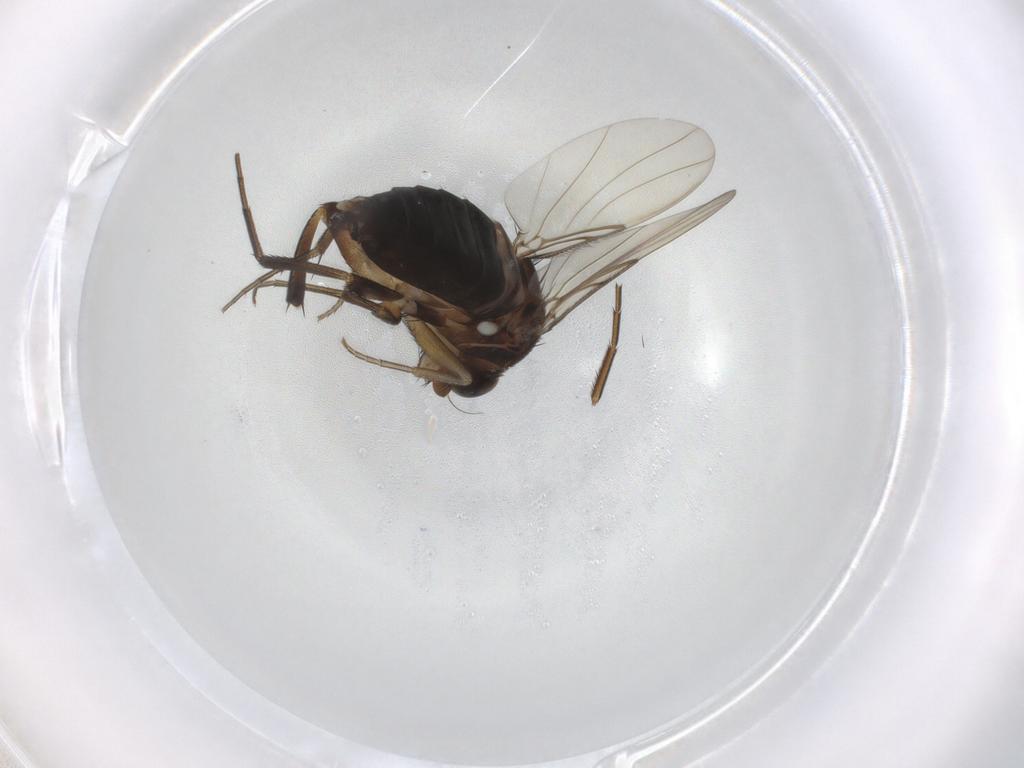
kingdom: Animalia
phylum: Arthropoda
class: Insecta
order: Diptera
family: Phoridae
